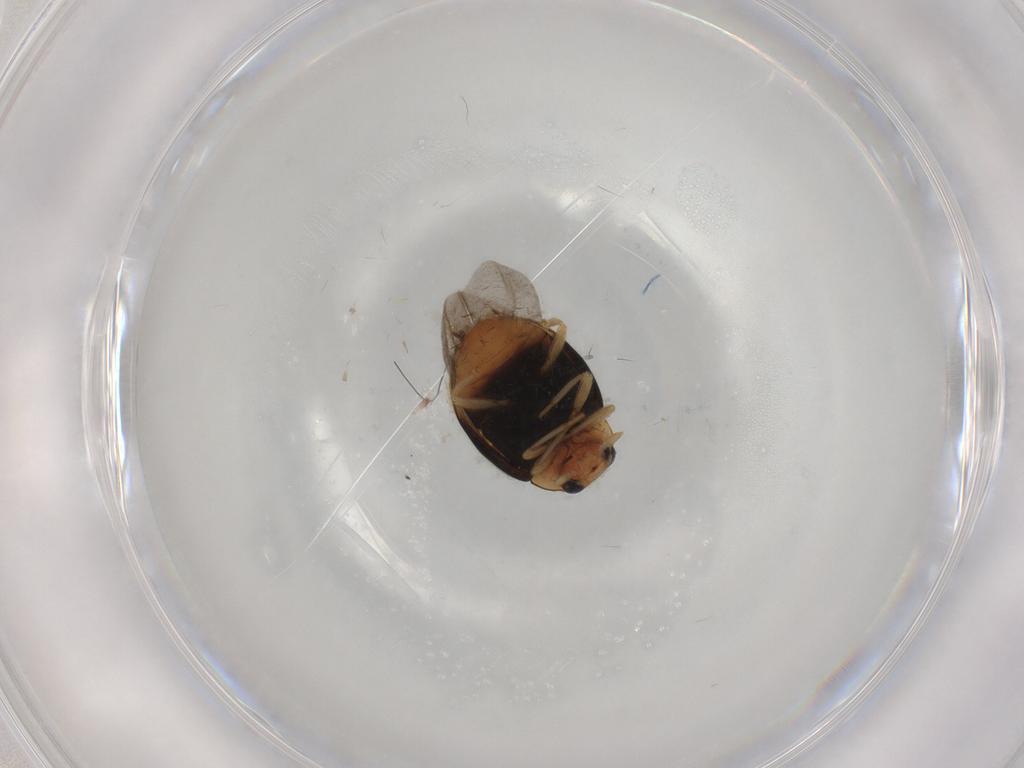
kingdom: Animalia
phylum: Arthropoda
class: Insecta
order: Coleoptera
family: Coccinellidae
